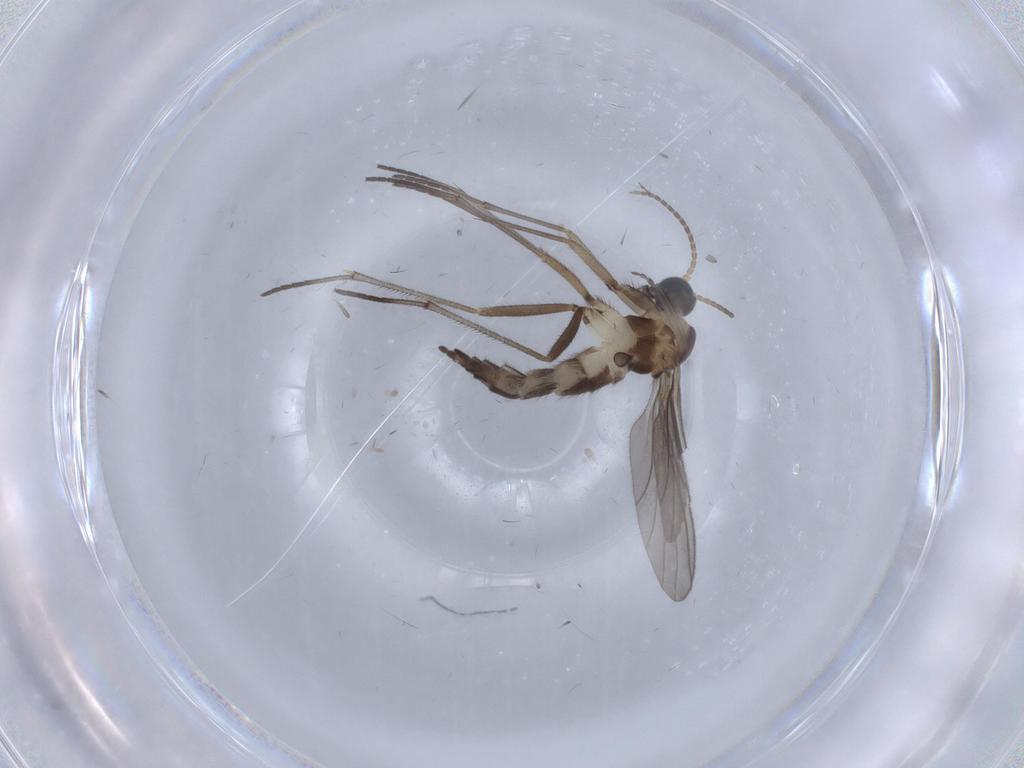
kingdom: Animalia
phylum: Arthropoda
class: Insecta
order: Diptera
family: Sciaridae
